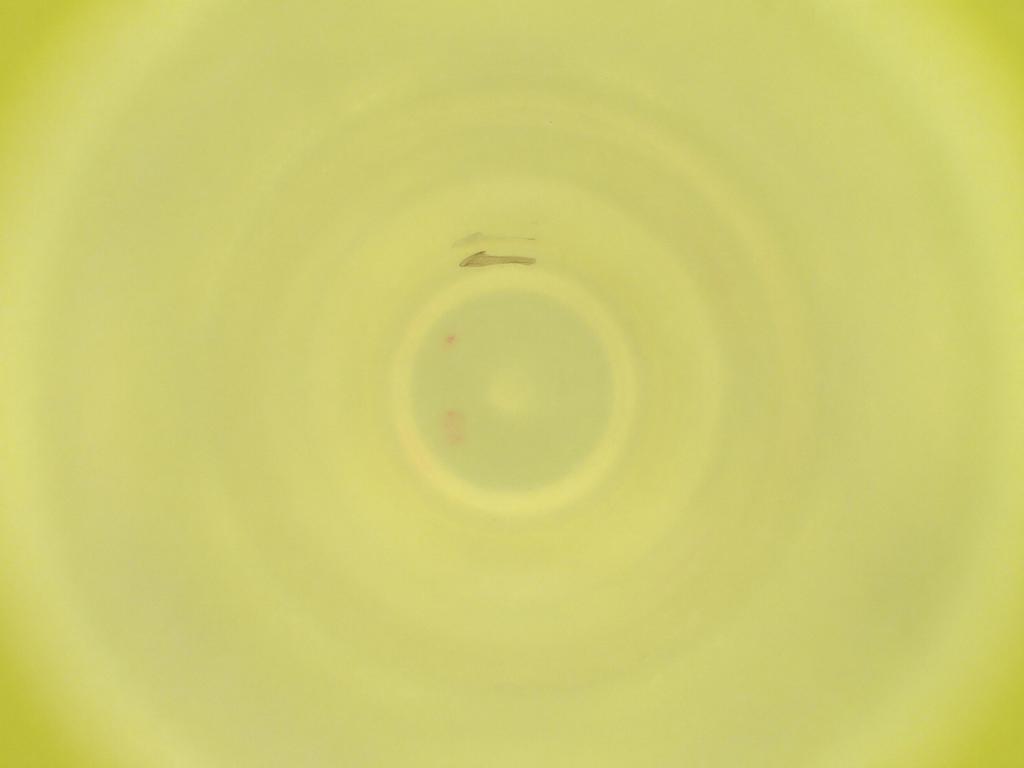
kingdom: Animalia
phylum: Arthropoda
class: Insecta
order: Diptera
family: Cecidomyiidae
